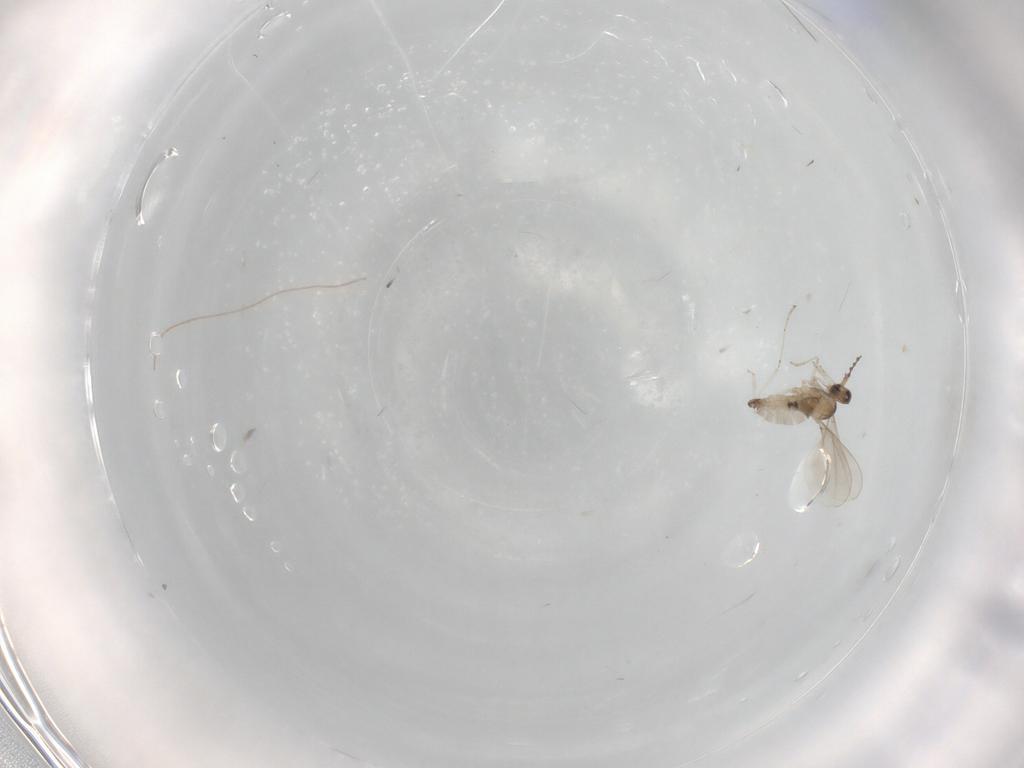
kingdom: Animalia
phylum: Arthropoda
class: Insecta
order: Diptera
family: Cecidomyiidae
